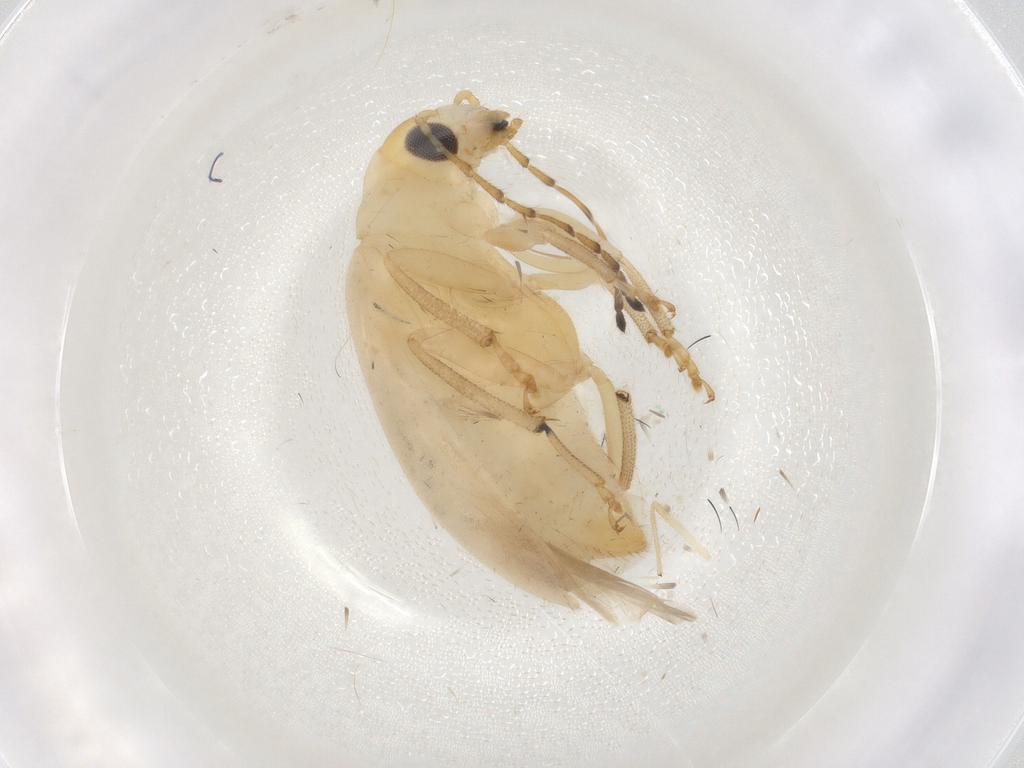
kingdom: Animalia
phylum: Arthropoda
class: Insecta
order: Coleoptera
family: Chrysomelidae
